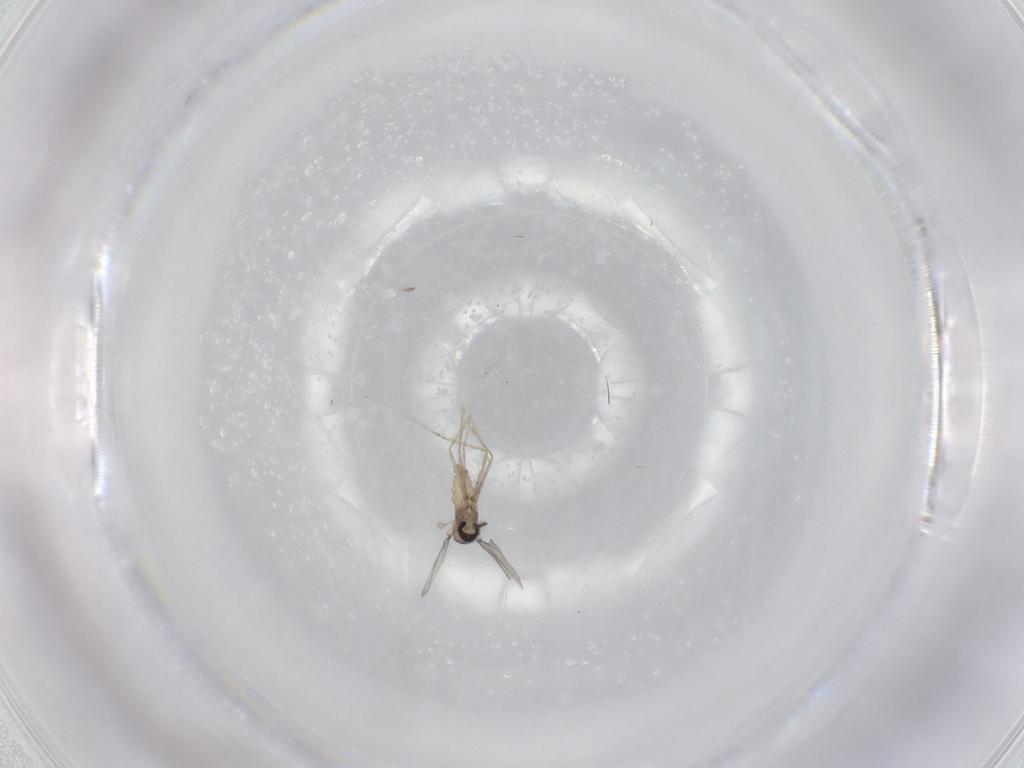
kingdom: Animalia
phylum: Arthropoda
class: Insecta
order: Diptera
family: Cecidomyiidae
